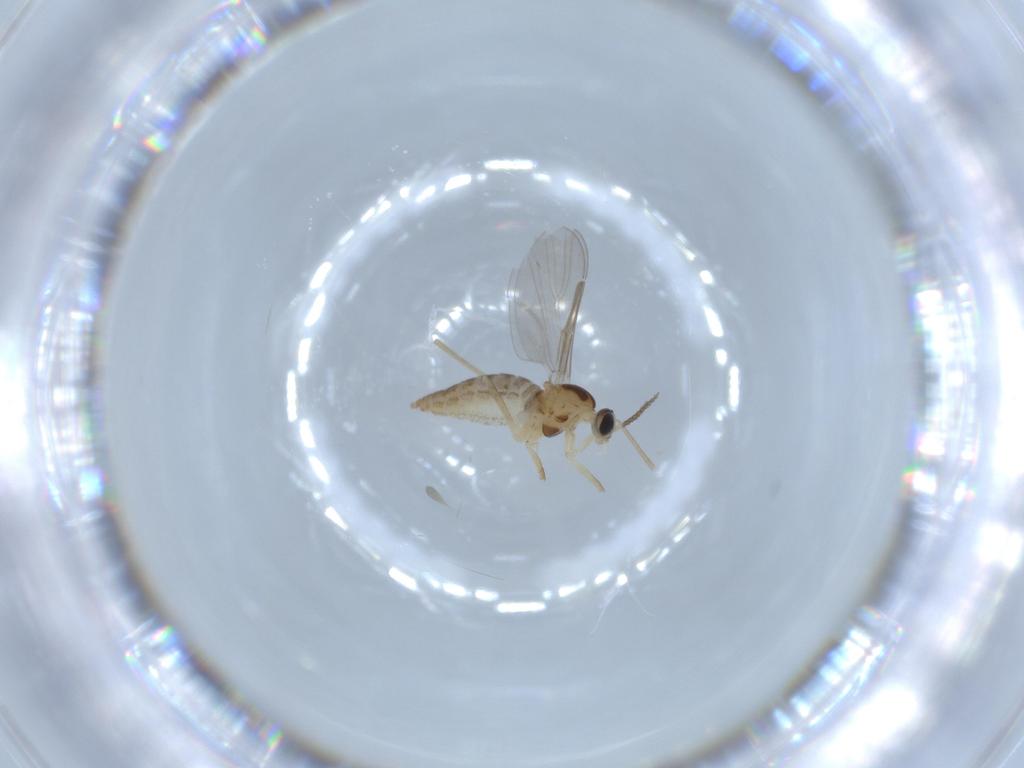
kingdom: Animalia
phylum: Arthropoda
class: Insecta
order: Diptera
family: Cecidomyiidae
